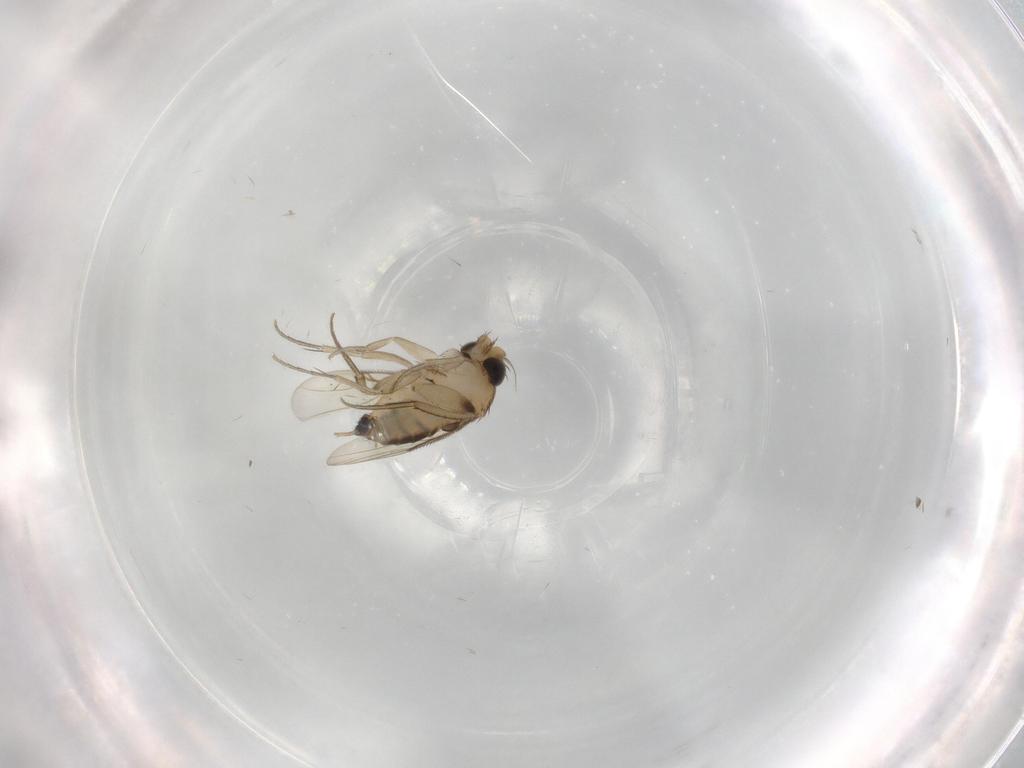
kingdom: Animalia
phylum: Arthropoda
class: Insecta
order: Diptera
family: Phoridae
